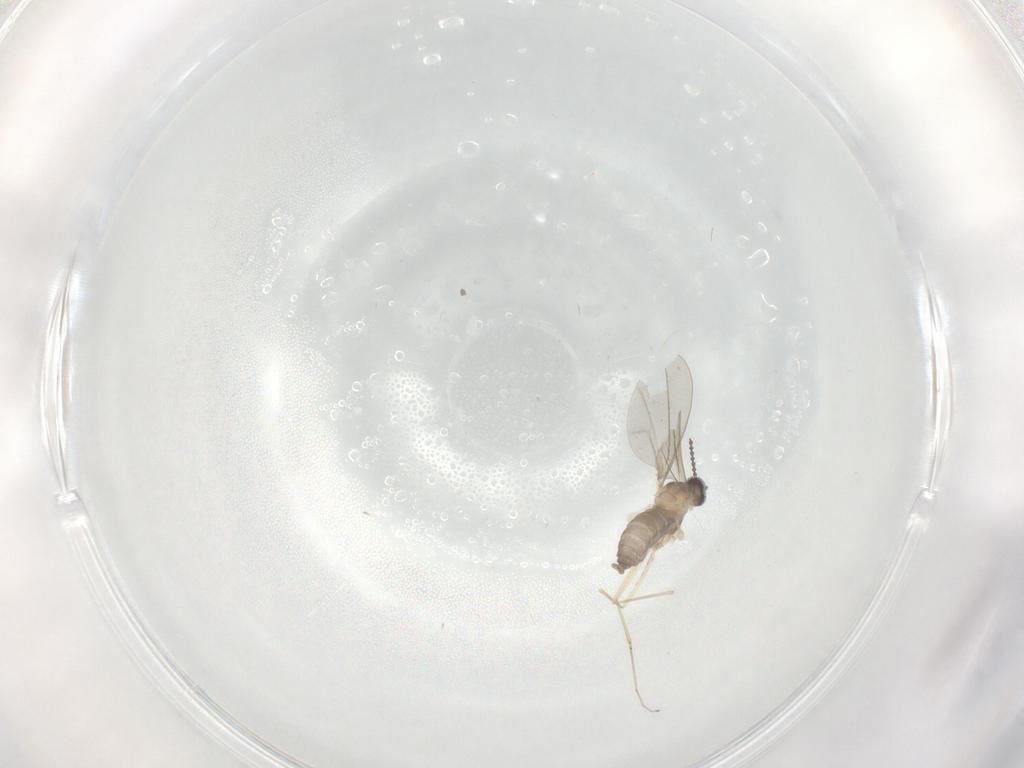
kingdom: Animalia
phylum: Arthropoda
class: Insecta
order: Diptera
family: Cecidomyiidae
